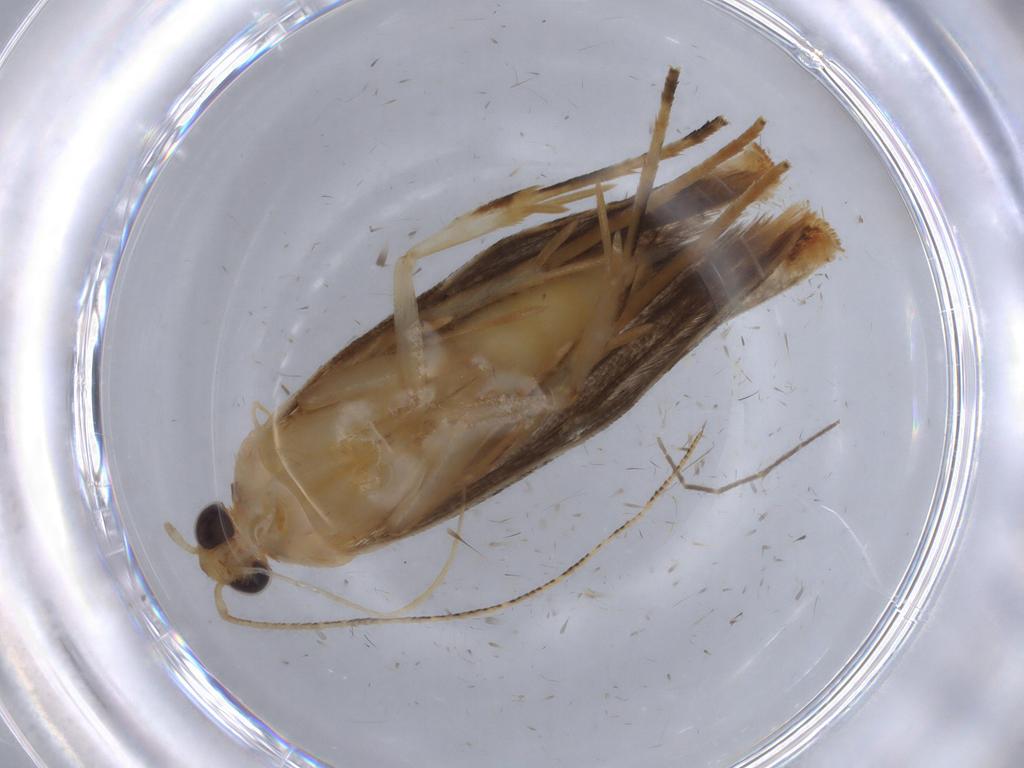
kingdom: Animalia
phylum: Arthropoda
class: Insecta
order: Lepidoptera
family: Gelechiidae
